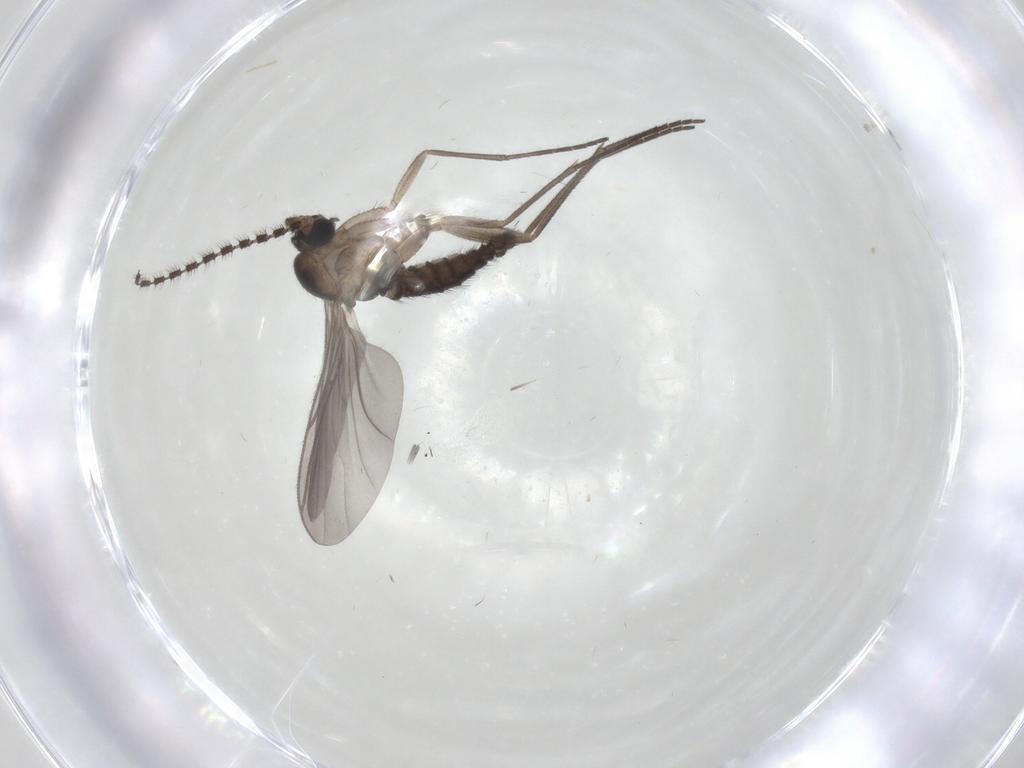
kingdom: Animalia
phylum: Arthropoda
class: Insecta
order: Diptera
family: Sciaridae
